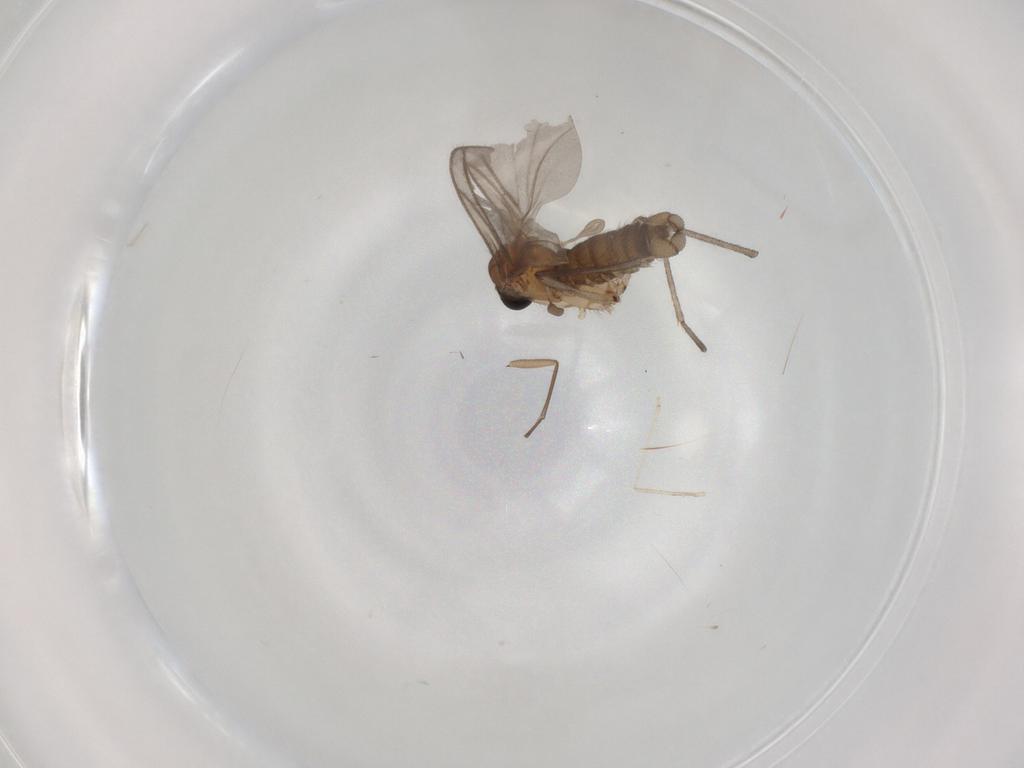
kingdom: Animalia
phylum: Arthropoda
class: Insecta
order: Diptera
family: Sciaridae
